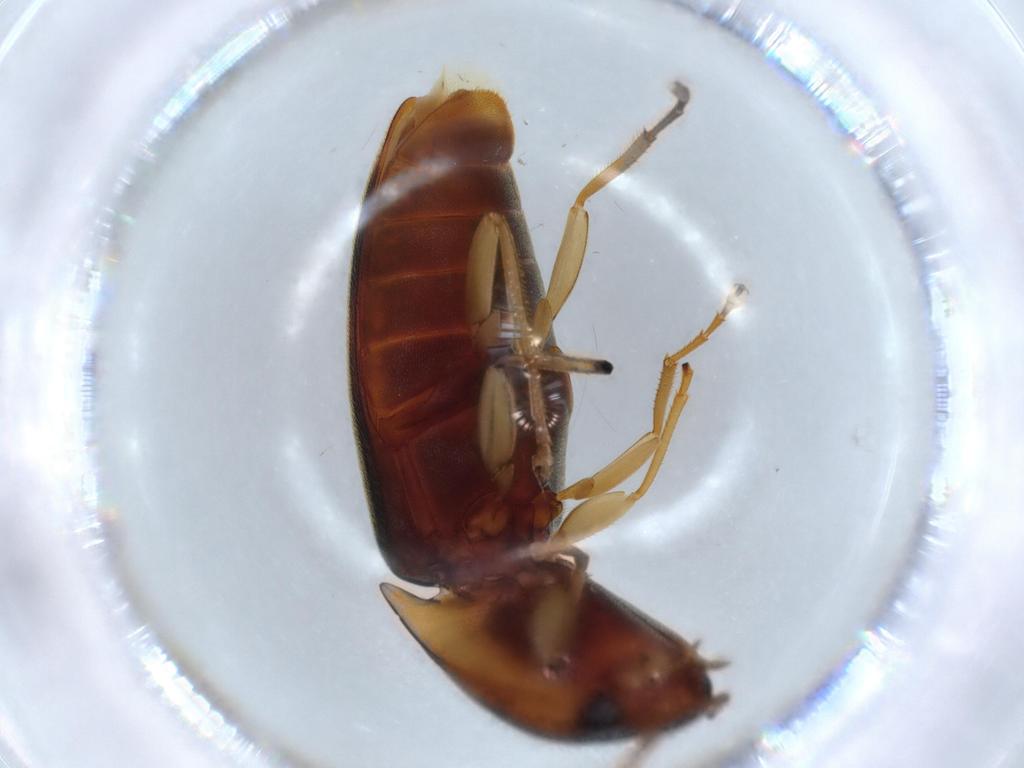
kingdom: Animalia
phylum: Arthropoda
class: Insecta
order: Coleoptera
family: Elateridae
